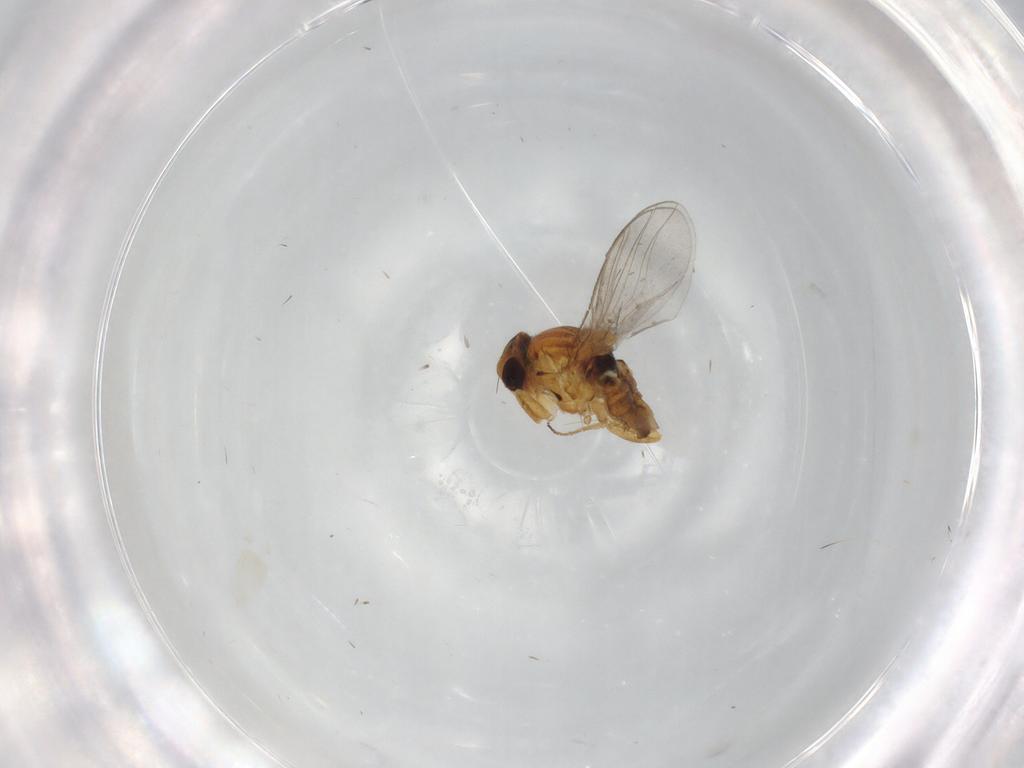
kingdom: Animalia
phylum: Arthropoda
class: Insecta
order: Diptera
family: Chloropidae
